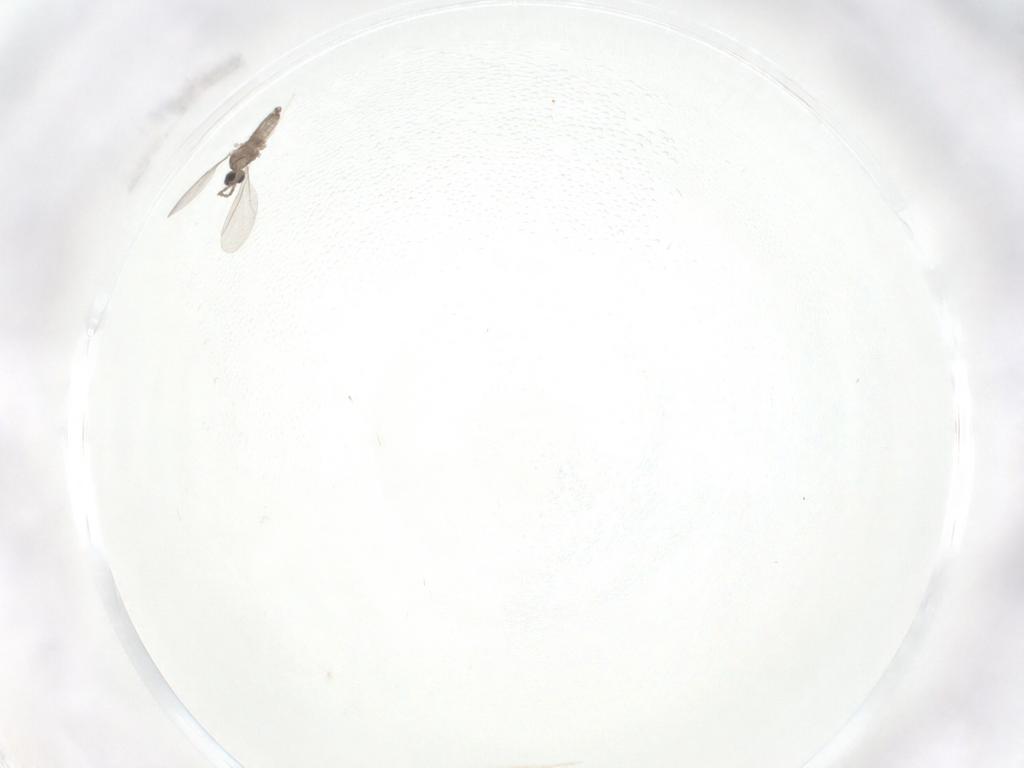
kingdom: Animalia
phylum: Arthropoda
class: Insecta
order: Diptera
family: Cecidomyiidae
